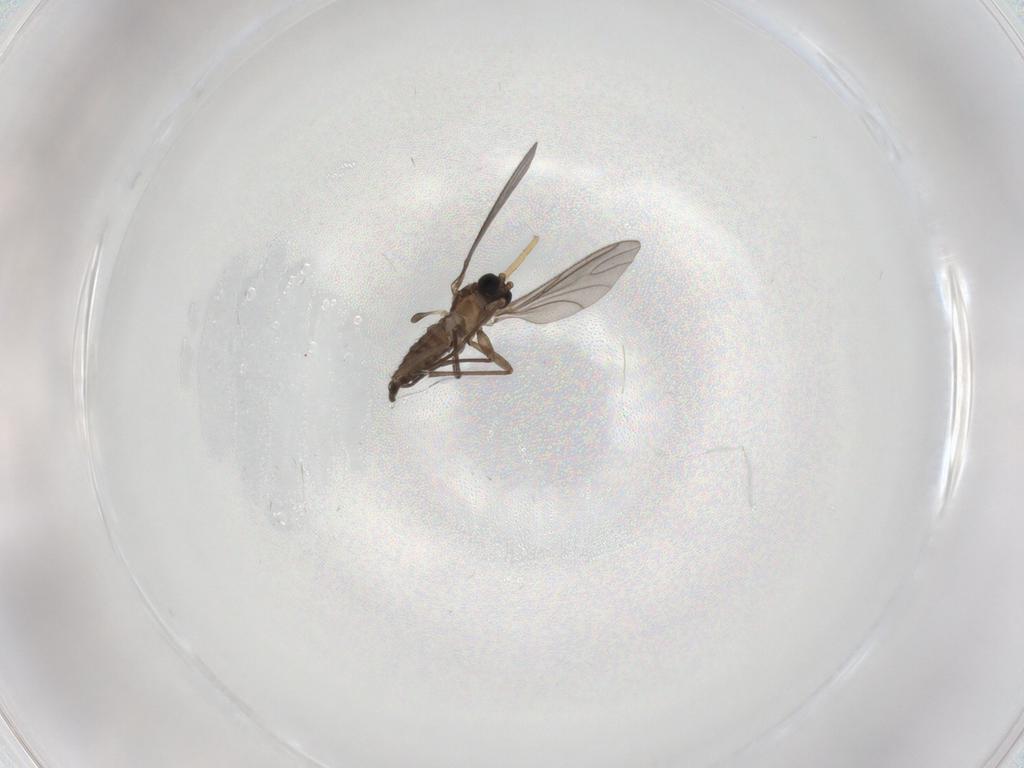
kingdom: Animalia
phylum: Arthropoda
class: Insecta
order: Diptera
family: Sciaridae
